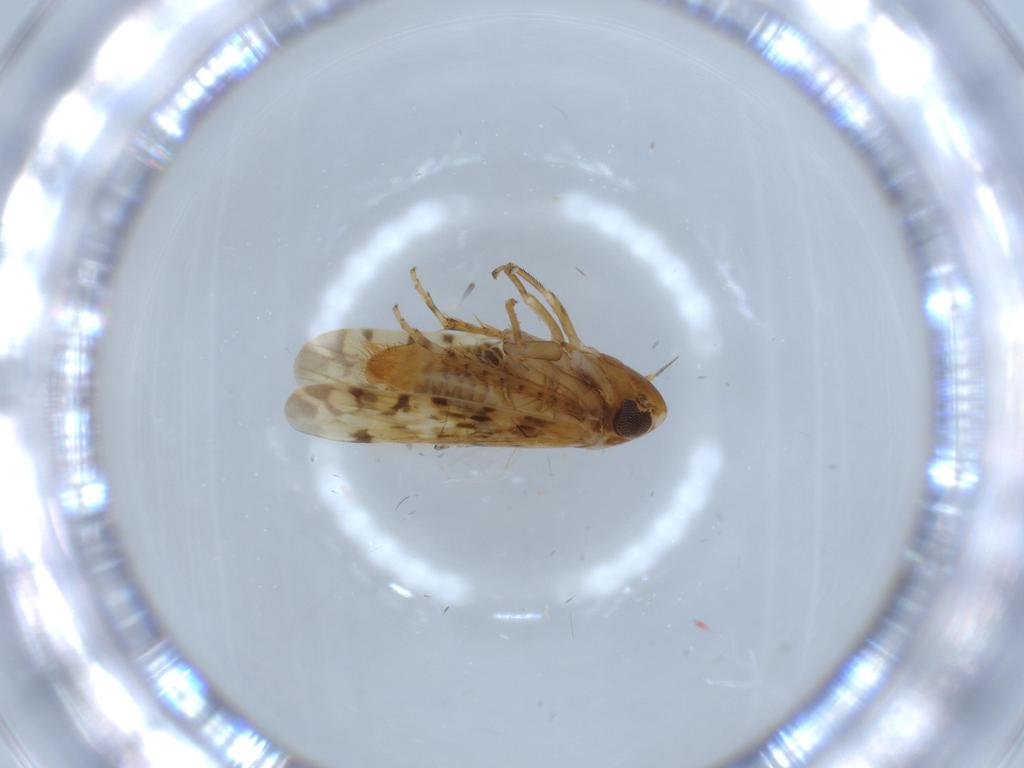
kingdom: Animalia
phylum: Arthropoda
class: Insecta
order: Hemiptera
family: Cicadellidae
